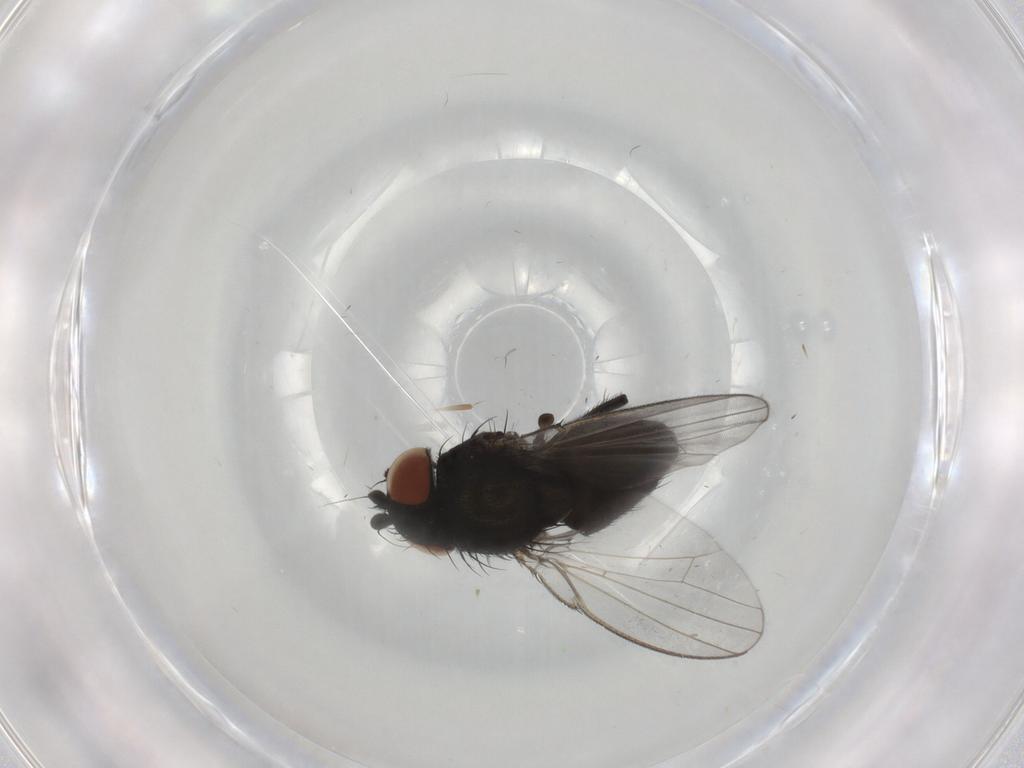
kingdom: Animalia
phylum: Arthropoda
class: Insecta
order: Diptera
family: Milichiidae
